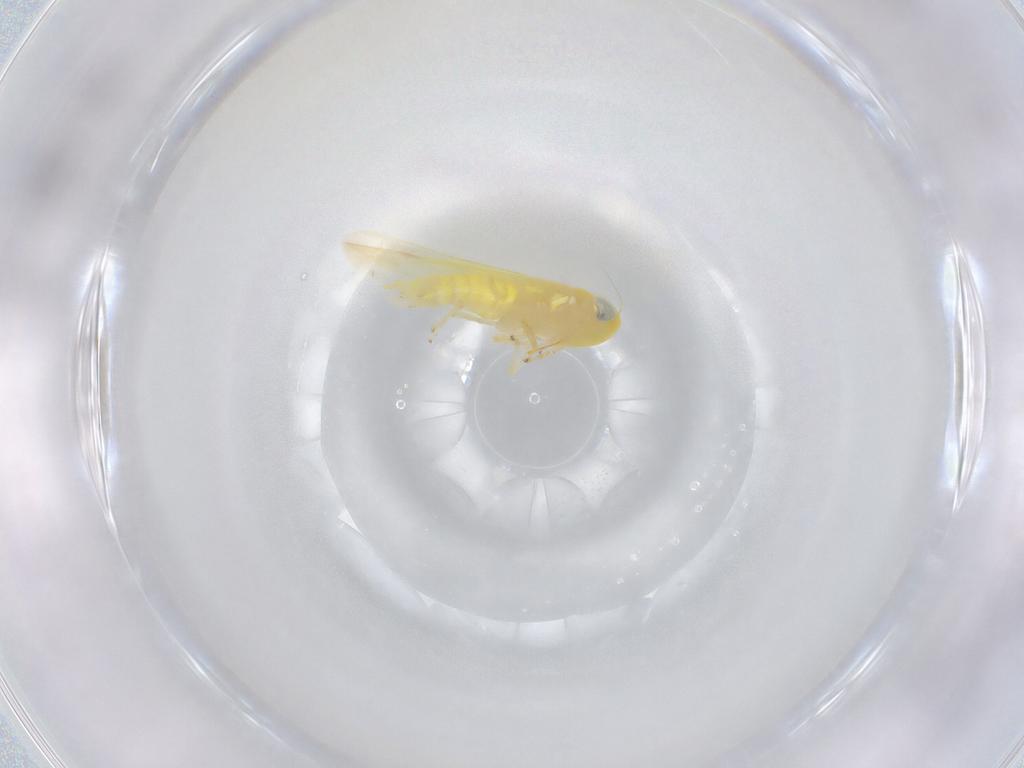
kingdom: Animalia
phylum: Arthropoda
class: Insecta
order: Hemiptera
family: Cicadellidae
